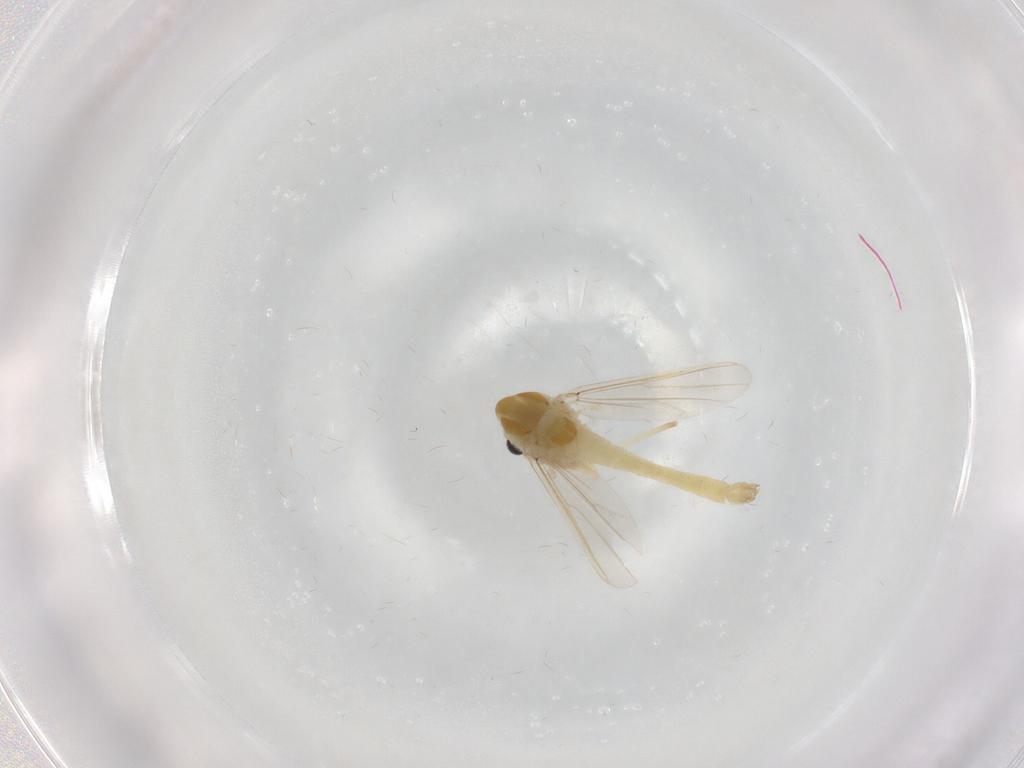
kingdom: Animalia
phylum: Arthropoda
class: Insecta
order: Diptera
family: Chironomidae
